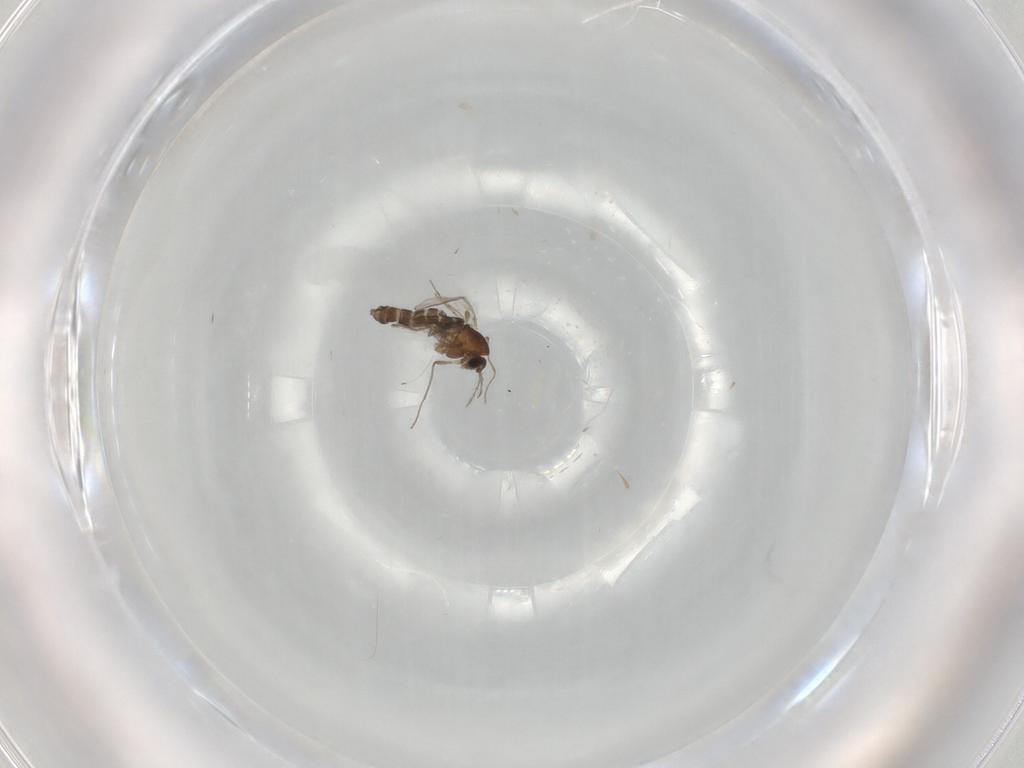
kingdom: Animalia
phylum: Arthropoda
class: Insecta
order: Diptera
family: Chironomidae
